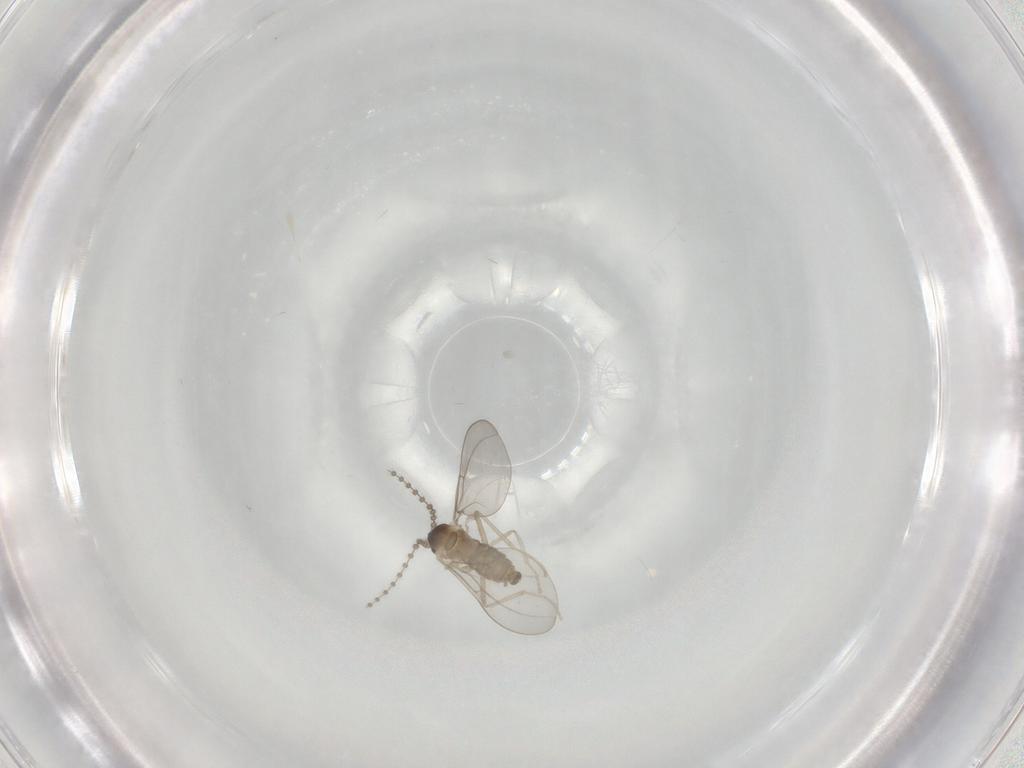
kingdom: Animalia
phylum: Arthropoda
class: Insecta
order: Diptera
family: Cecidomyiidae
